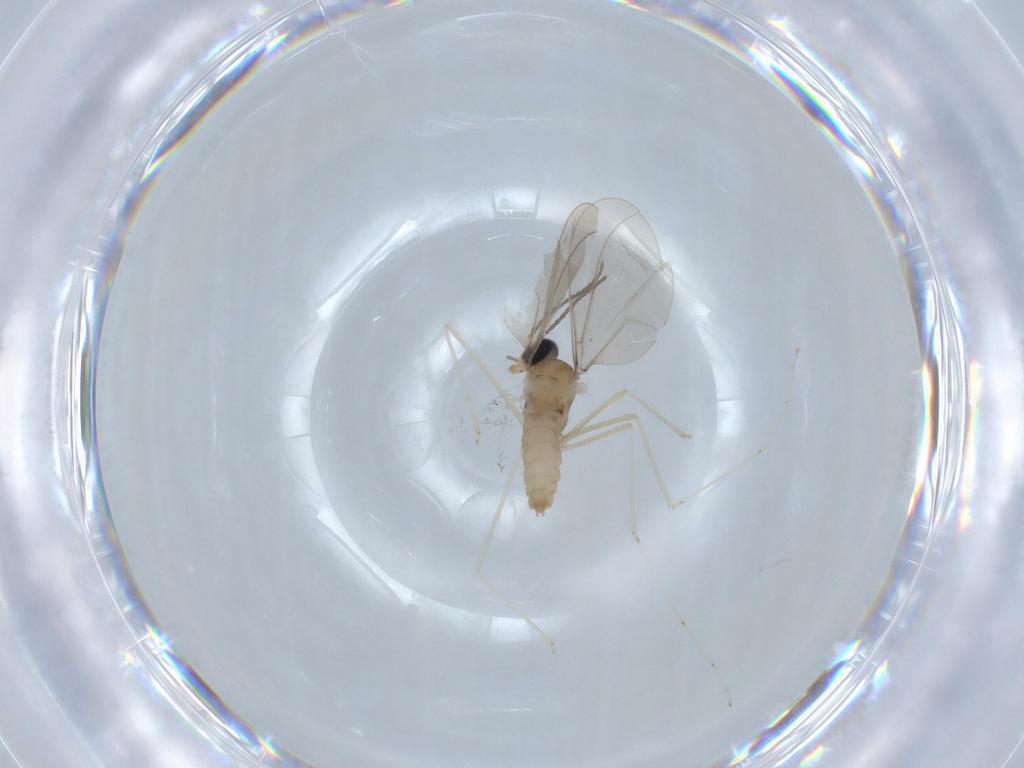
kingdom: Animalia
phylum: Arthropoda
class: Insecta
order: Diptera
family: Cecidomyiidae
